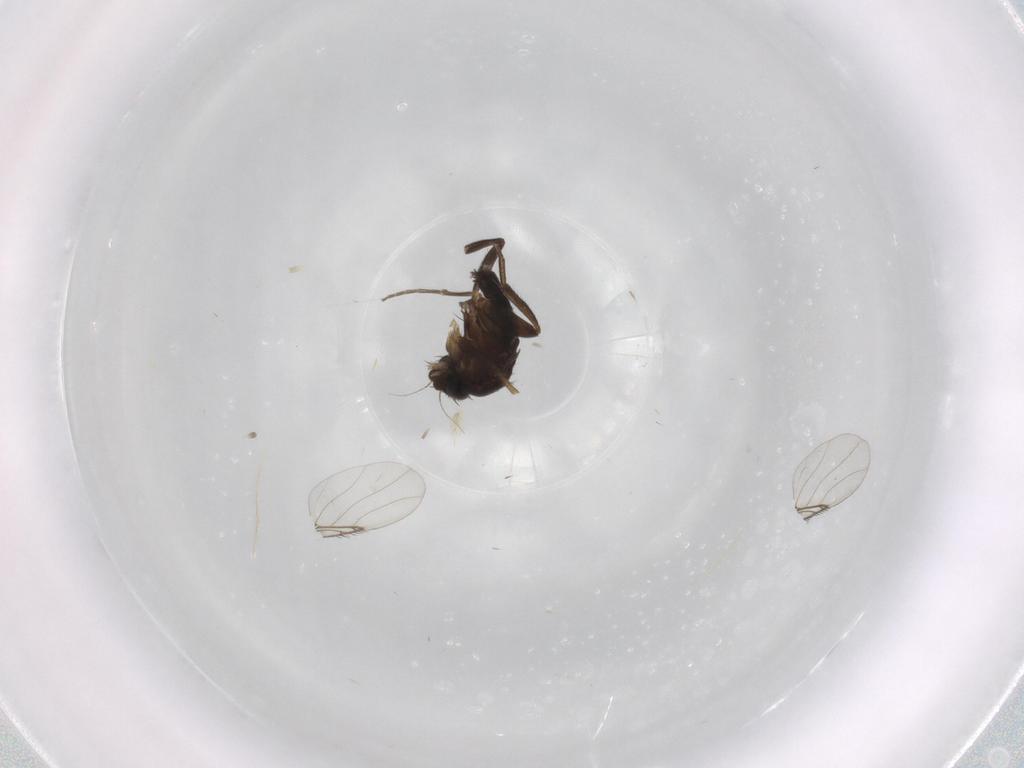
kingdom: Animalia
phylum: Arthropoda
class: Insecta
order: Diptera
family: Phoridae
